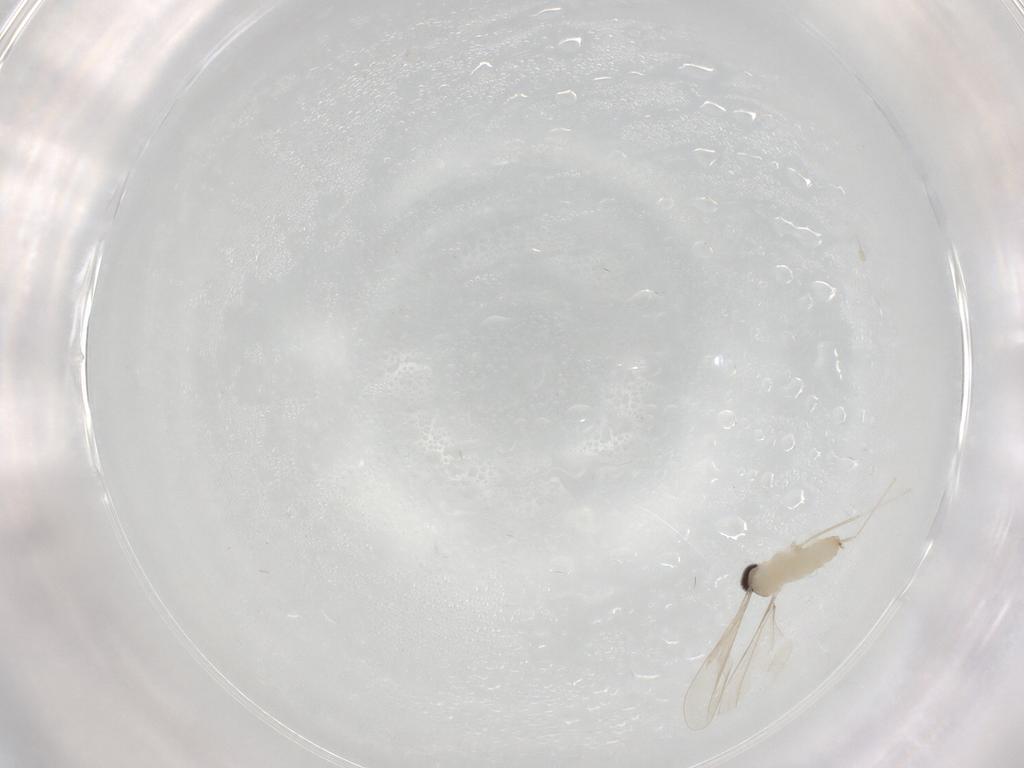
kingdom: Animalia
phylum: Arthropoda
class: Insecta
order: Diptera
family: Cecidomyiidae
